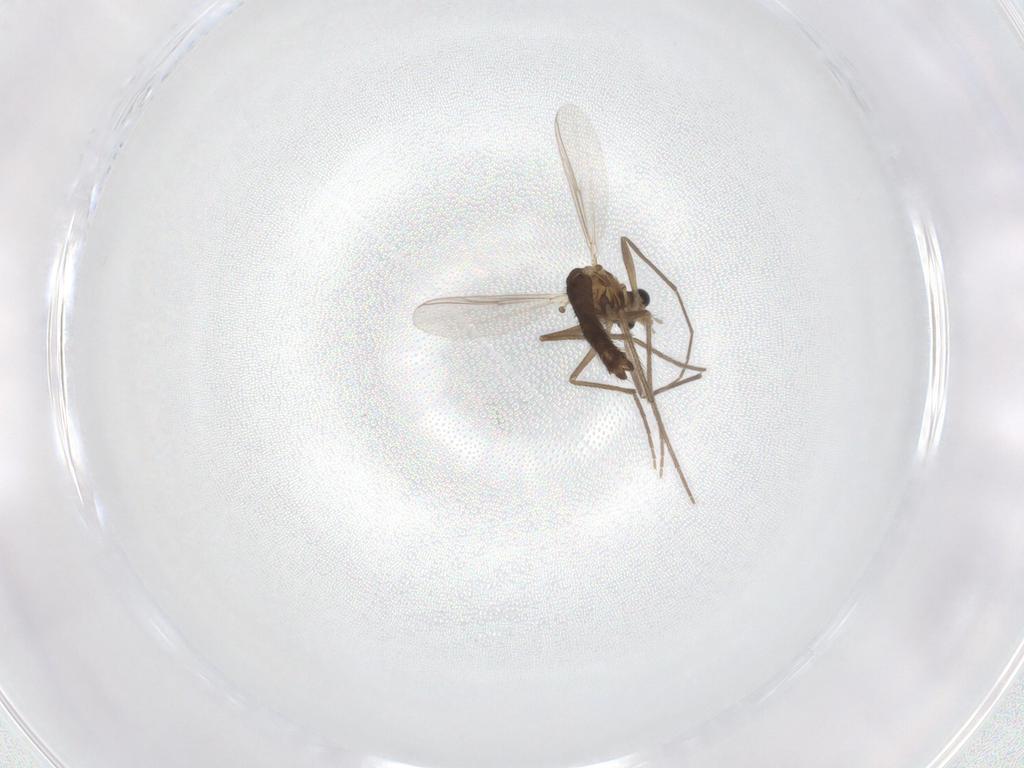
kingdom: Animalia
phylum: Arthropoda
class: Insecta
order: Diptera
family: Chironomidae
